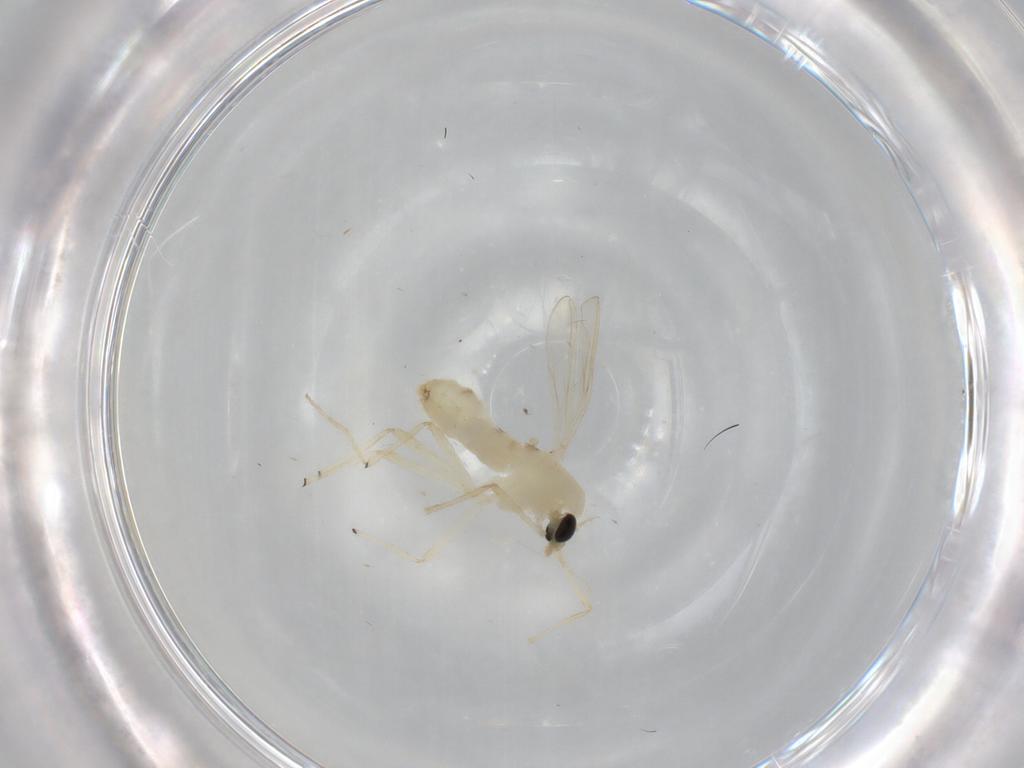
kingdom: Animalia
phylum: Arthropoda
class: Insecta
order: Diptera
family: Chironomidae
